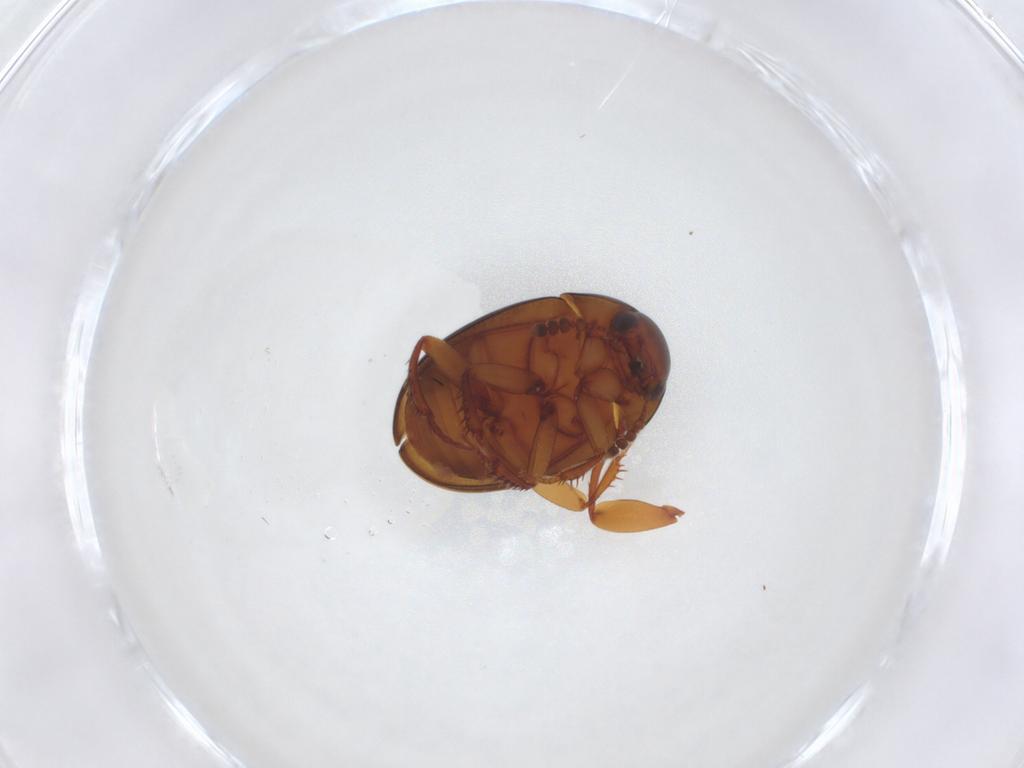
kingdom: Animalia
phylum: Arthropoda
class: Insecta
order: Coleoptera
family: Leiodidae
